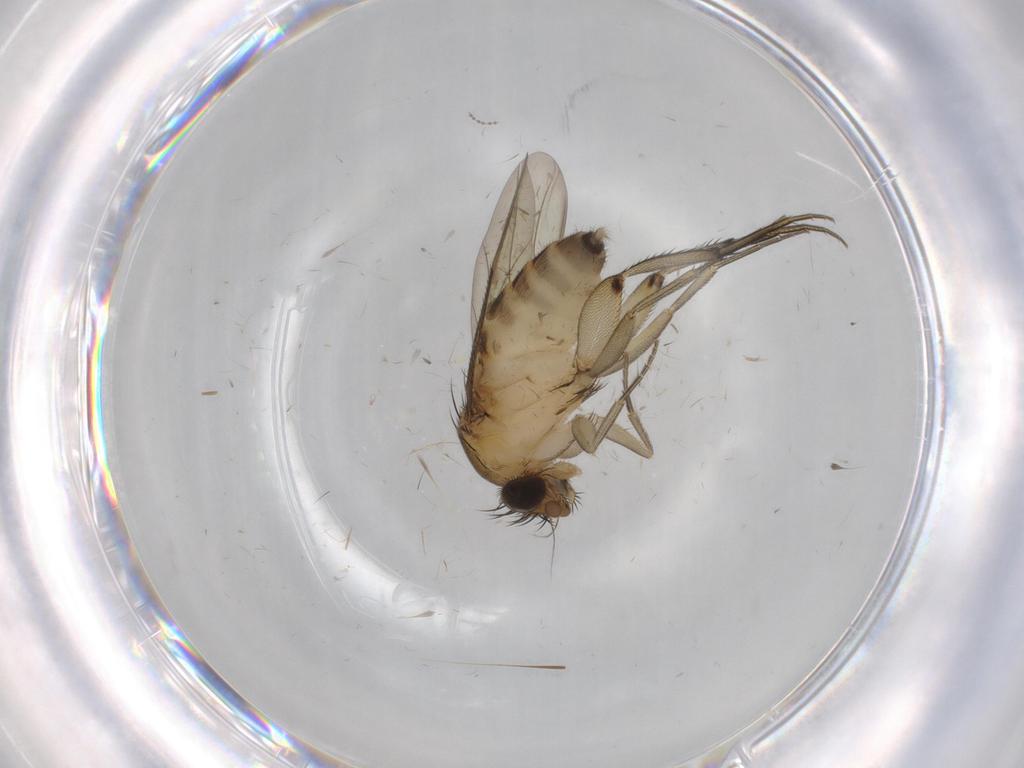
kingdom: Animalia
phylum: Arthropoda
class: Insecta
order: Diptera
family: Phoridae
